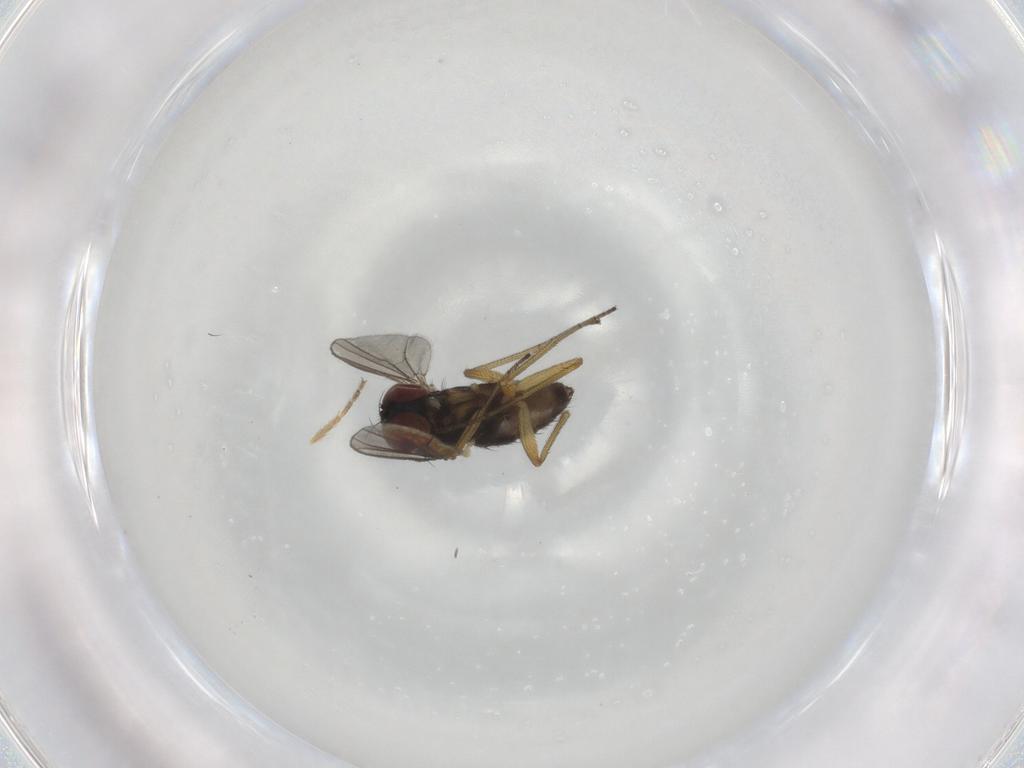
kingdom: Animalia
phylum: Arthropoda
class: Insecta
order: Diptera
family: Dolichopodidae
